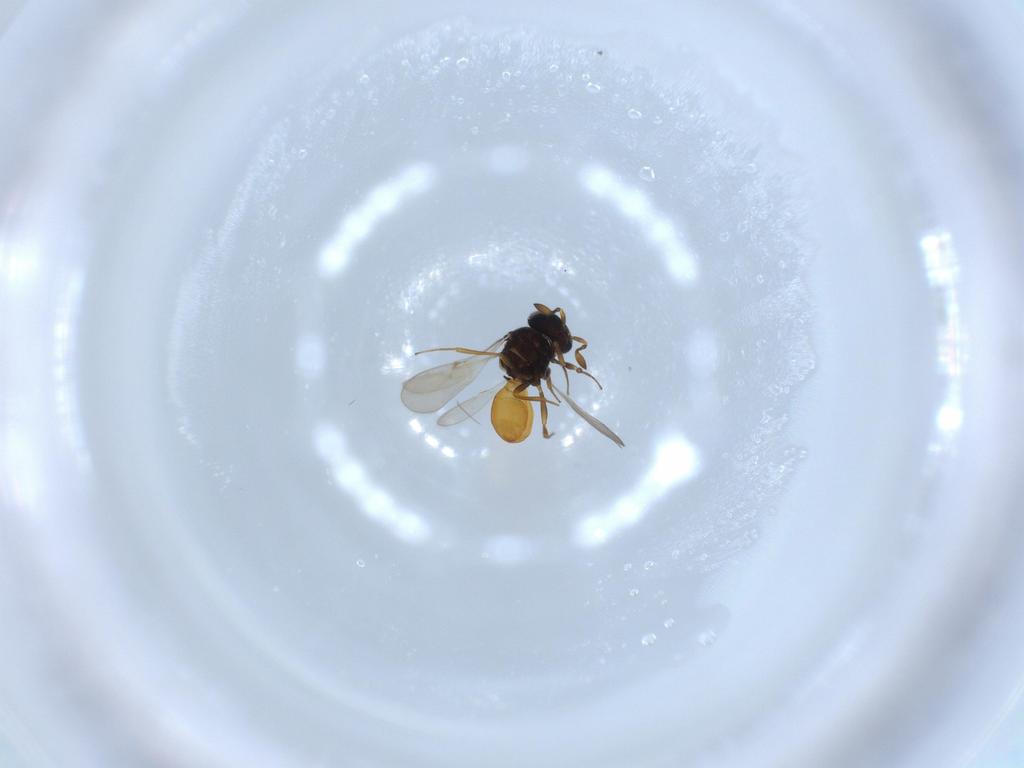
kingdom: Animalia
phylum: Arthropoda
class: Insecta
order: Hymenoptera
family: Scelionidae
